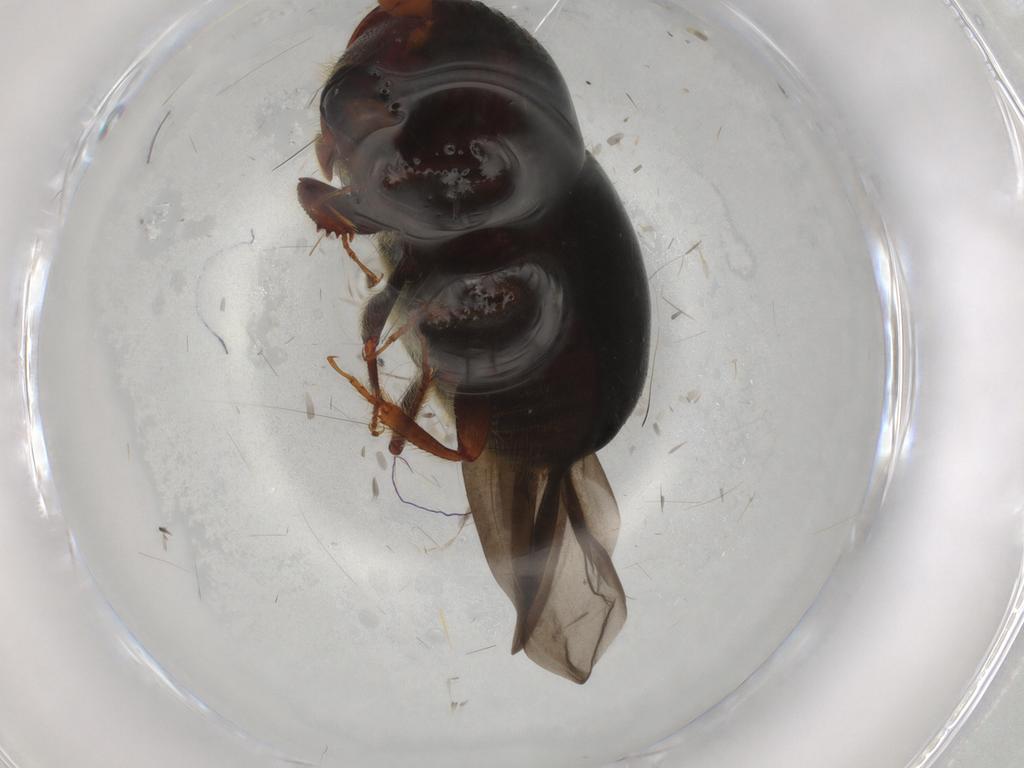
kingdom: Animalia
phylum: Arthropoda
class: Insecta
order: Coleoptera
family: Curculionidae
